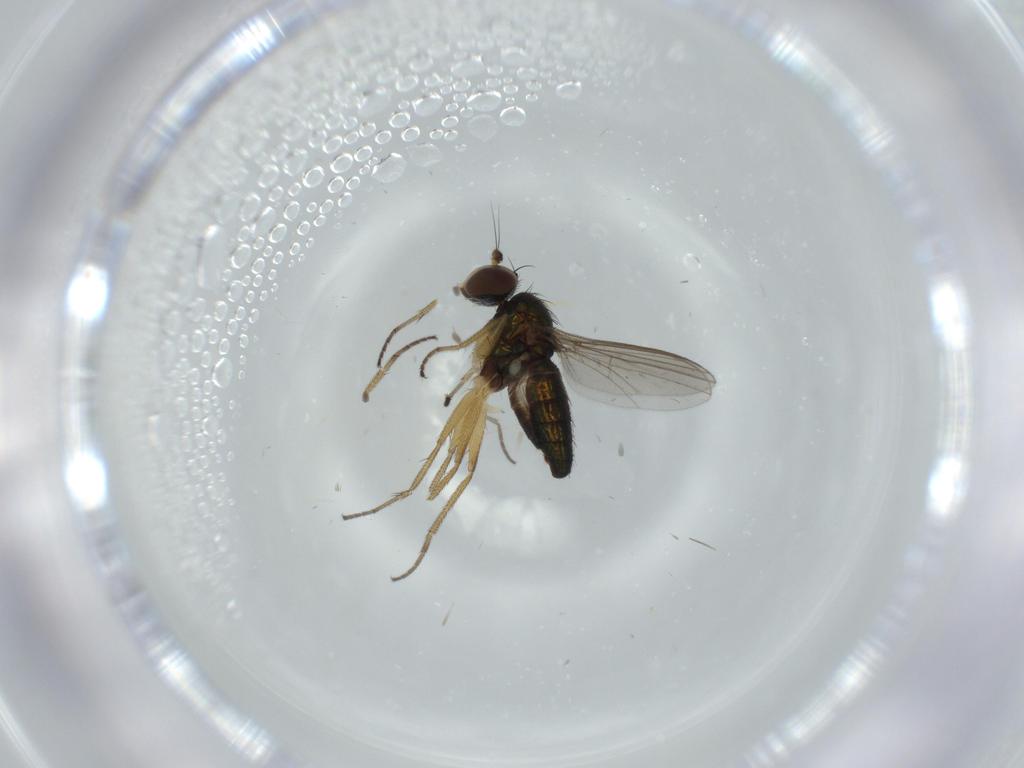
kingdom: Animalia
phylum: Arthropoda
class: Insecta
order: Diptera
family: Dolichopodidae
